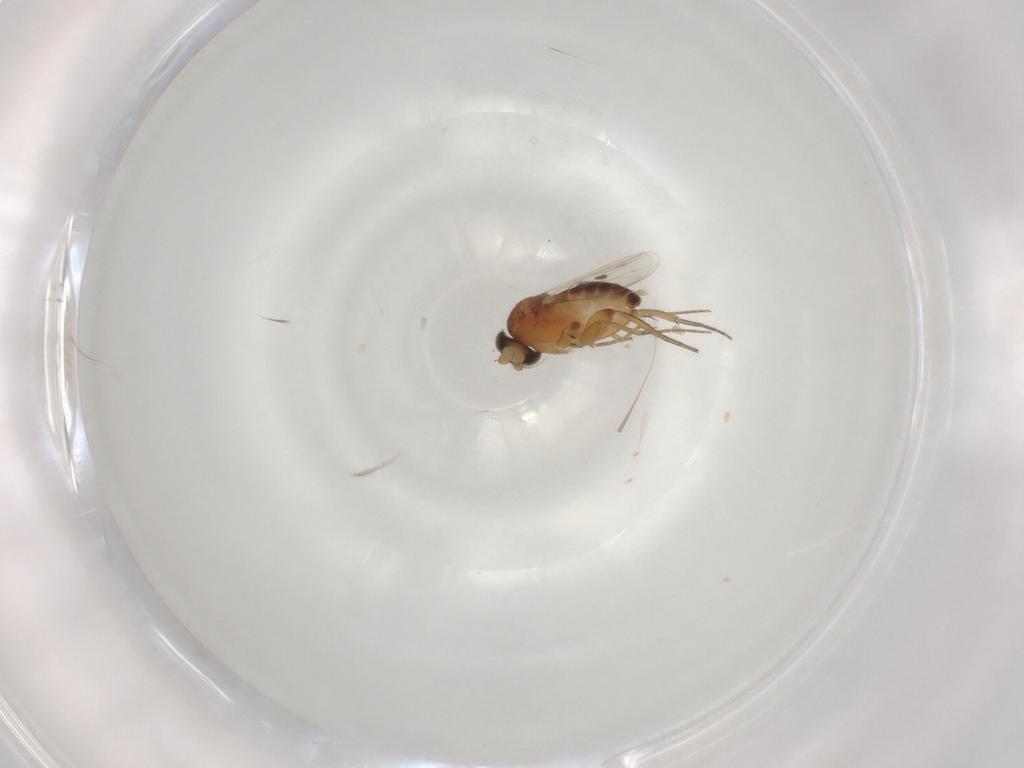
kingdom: Animalia
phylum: Arthropoda
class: Insecta
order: Diptera
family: Phoridae
